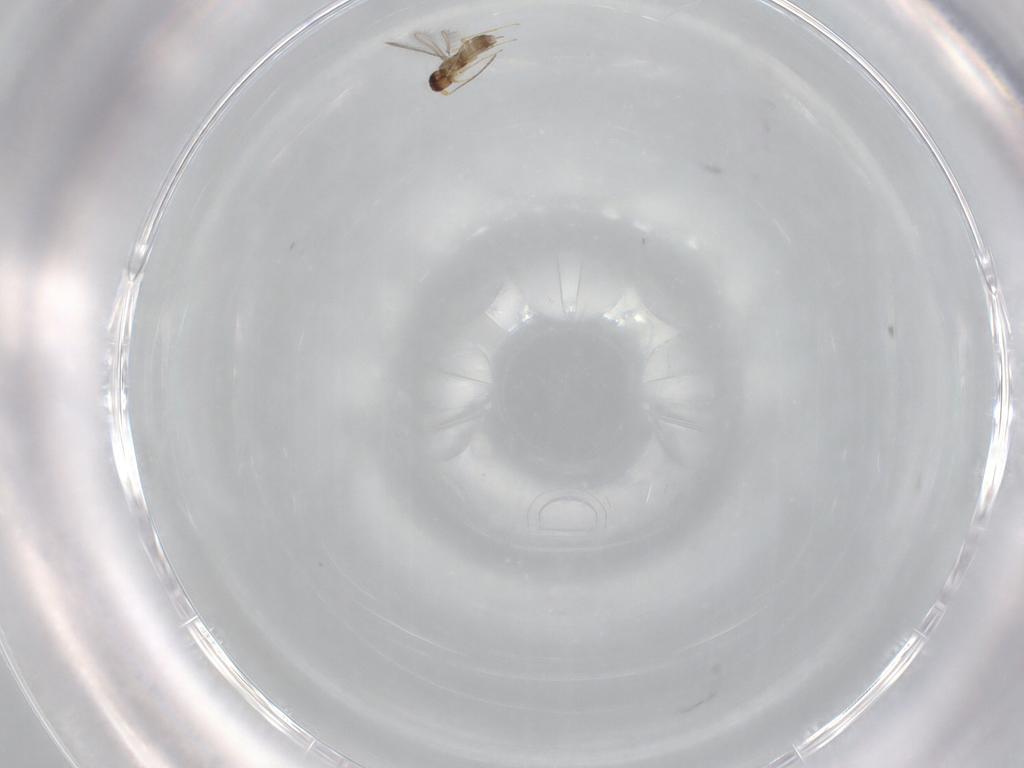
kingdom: Animalia
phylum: Arthropoda
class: Insecta
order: Hymenoptera
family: Mymaridae
